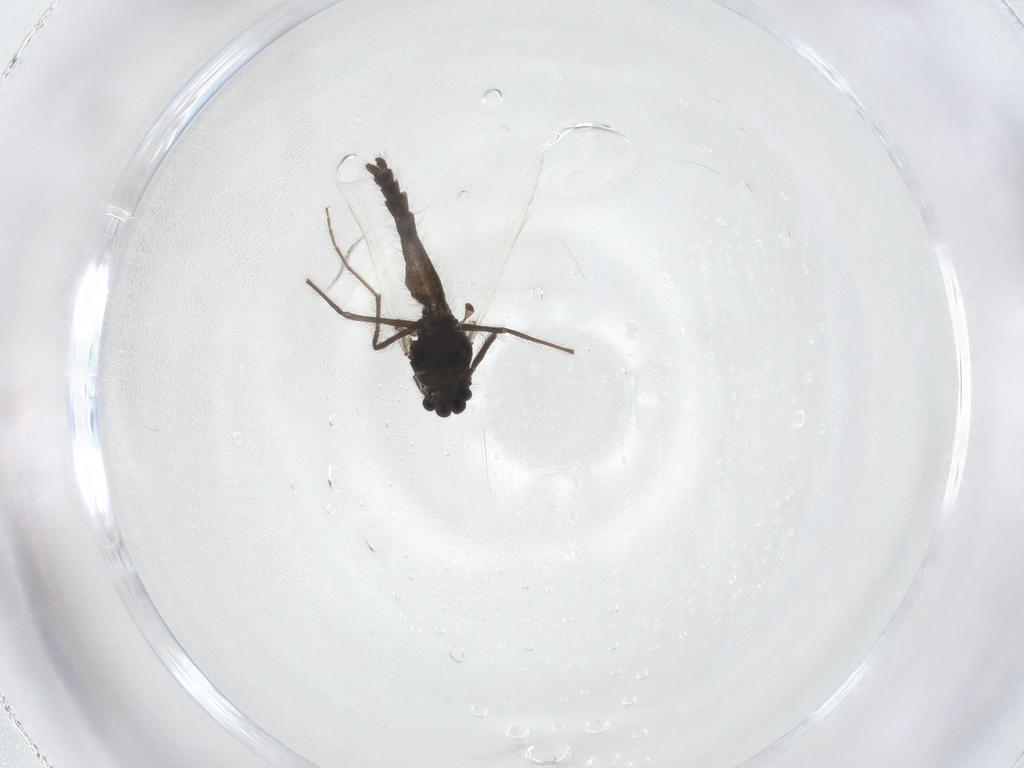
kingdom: Animalia
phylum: Arthropoda
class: Insecta
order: Diptera
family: Chironomidae
